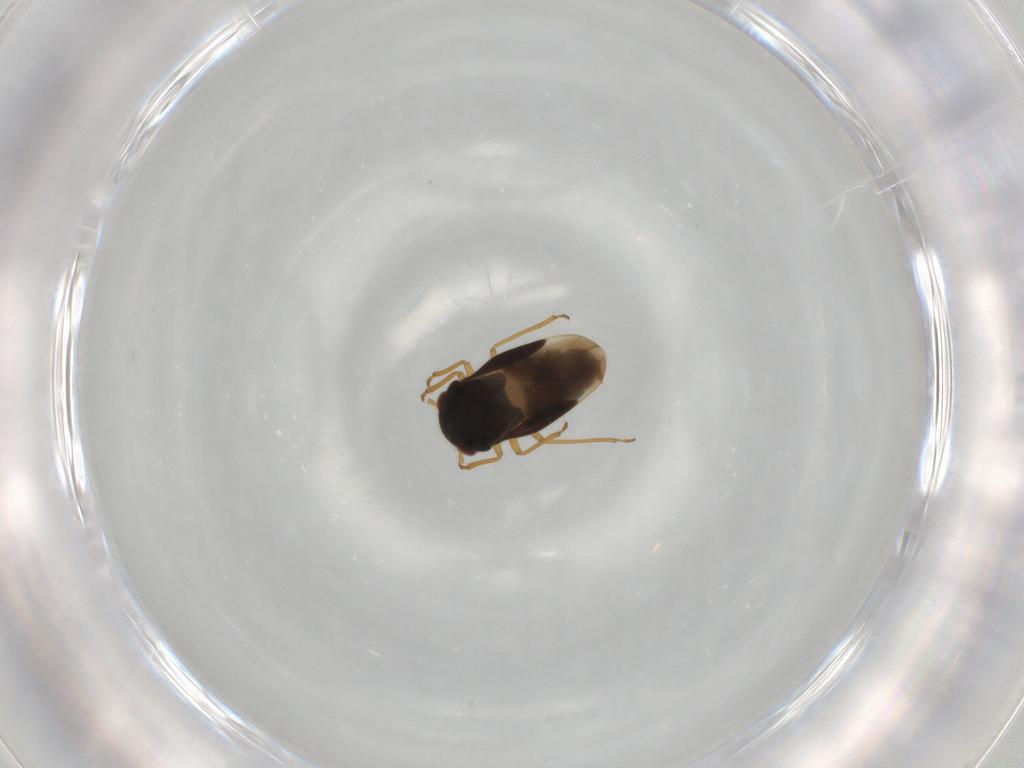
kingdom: Animalia
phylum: Arthropoda
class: Insecta
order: Hemiptera
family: Schizopteridae
